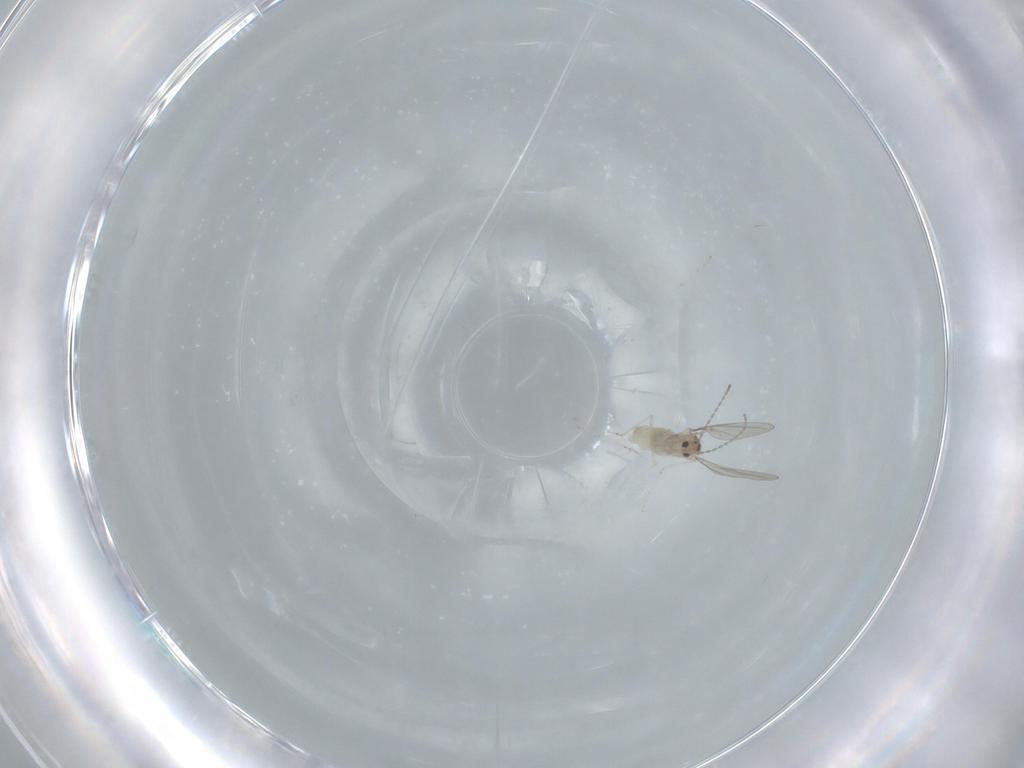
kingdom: Animalia
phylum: Arthropoda
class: Insecta
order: Diptera
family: Cecidomyiidae
